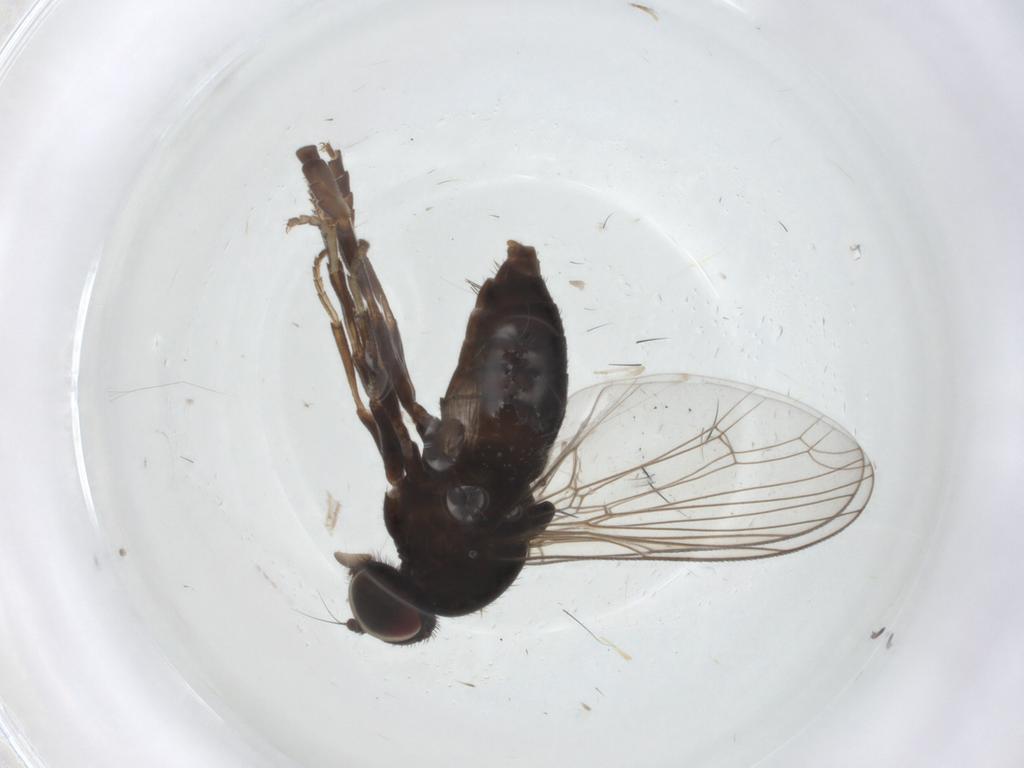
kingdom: Animalia
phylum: Arthropoda
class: Insecta
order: Diptera
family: Platypezidae
